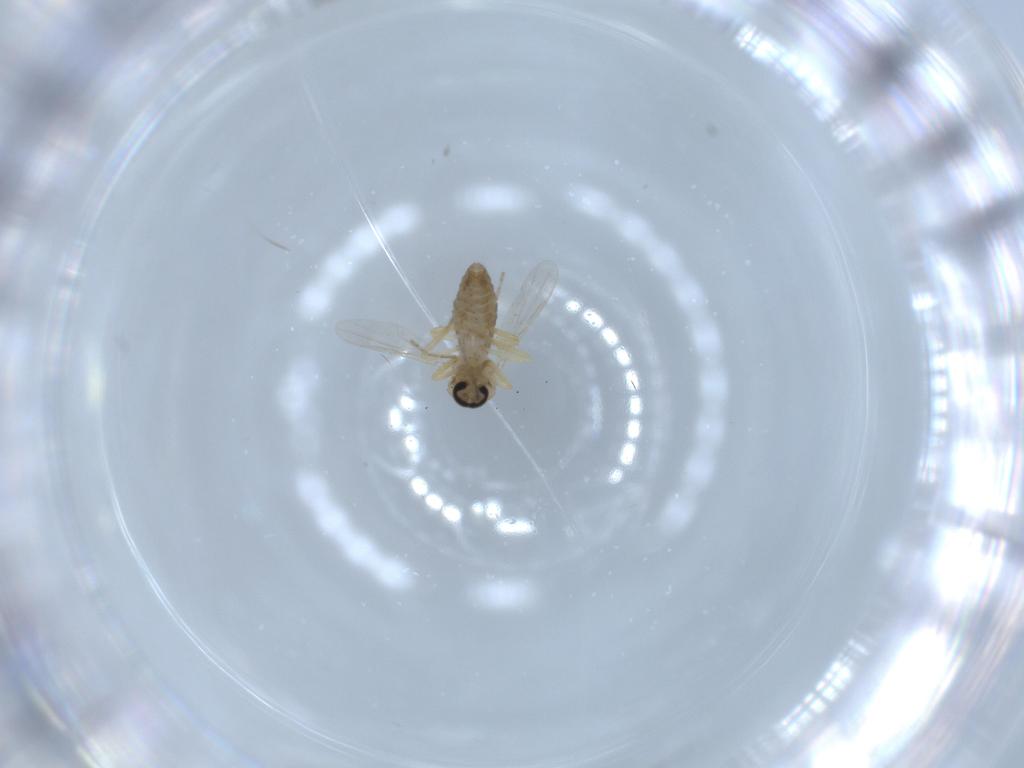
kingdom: Animalia
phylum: Arthropoda
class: Insecta
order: Diptera
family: Ceratopogonidae
